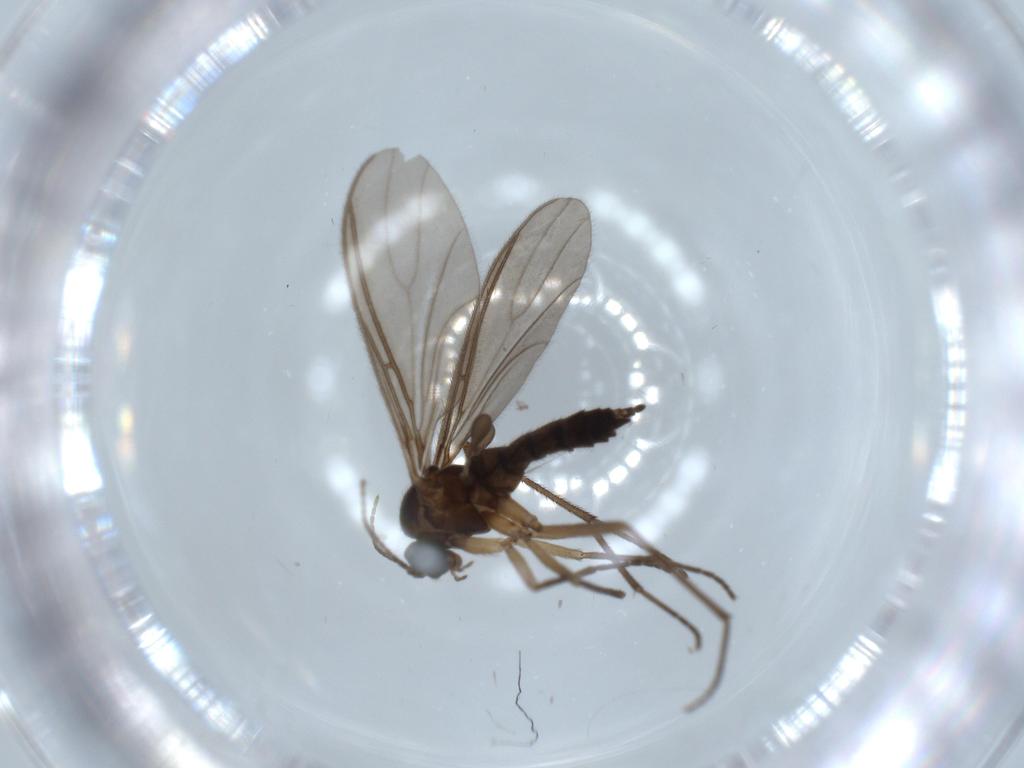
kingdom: Animalia
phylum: Arthropoda
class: Insecta
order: Diptera
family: Sciaridae
